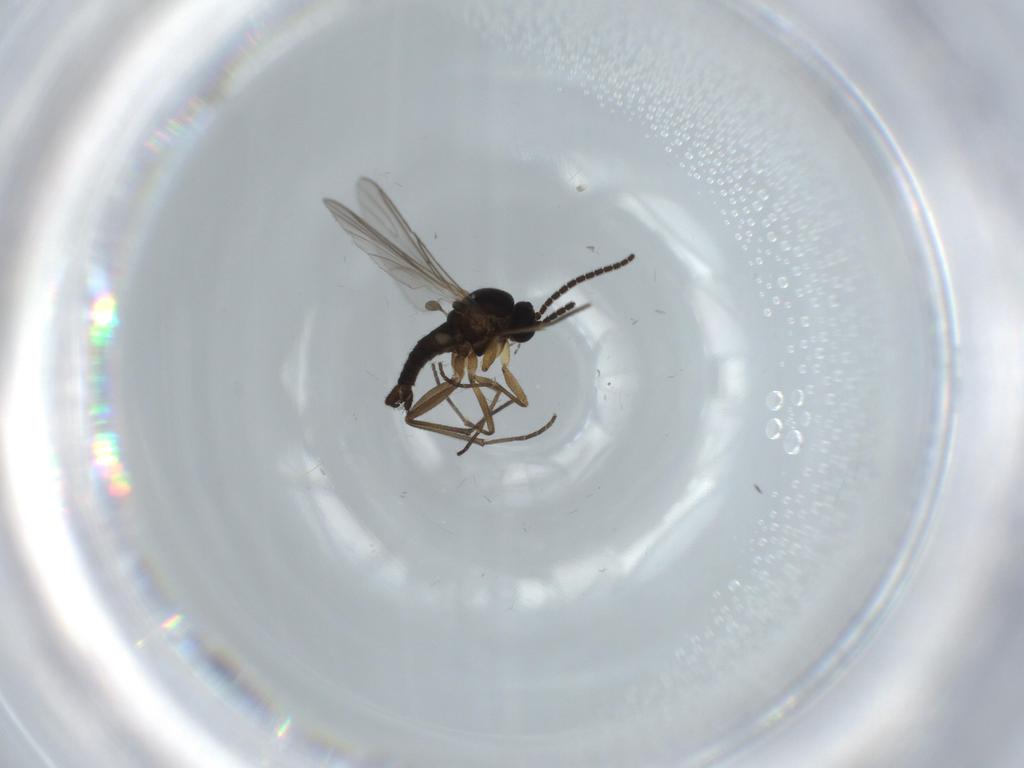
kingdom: Animalia
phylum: Arthropoda
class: Insecta
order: Diptera
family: Sciaridae
